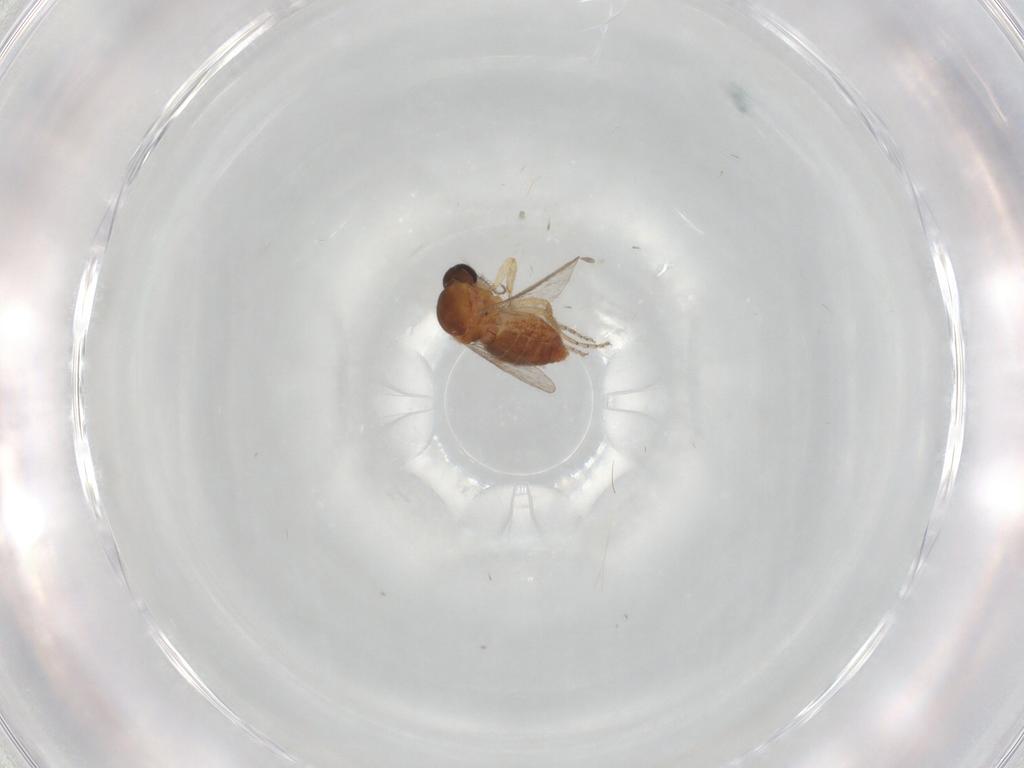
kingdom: Animalia
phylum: Arthropoda
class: Insecta
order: Diptera
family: Ceratopogonidae
